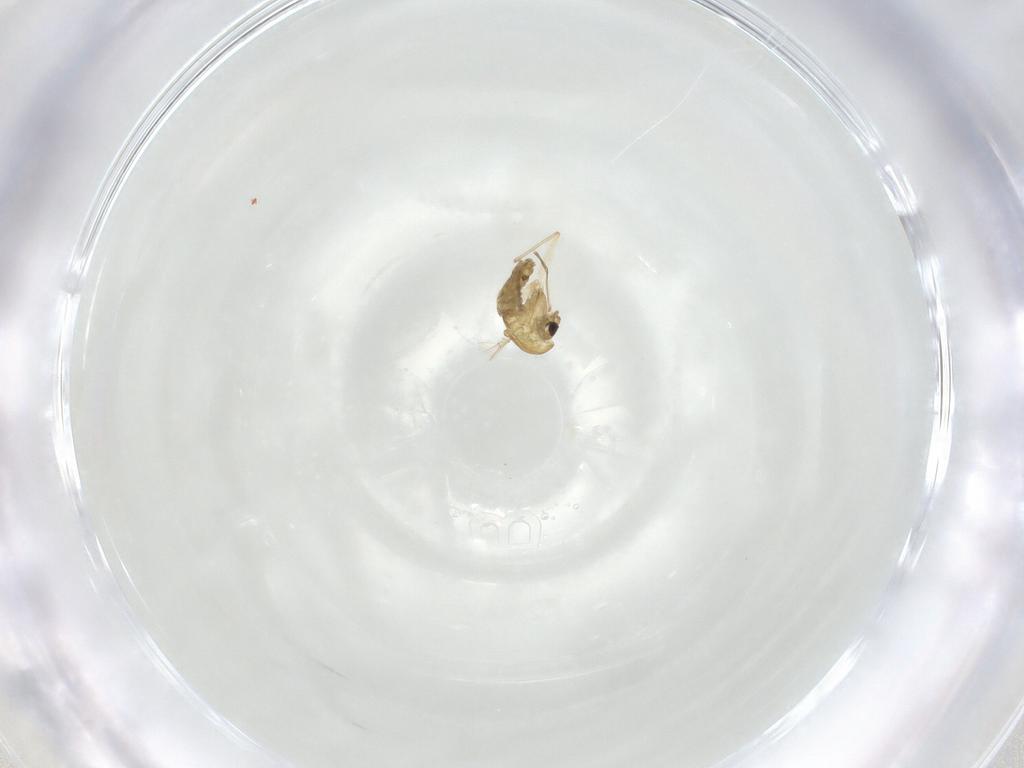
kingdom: Animalia
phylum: Arthropoda
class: Insecta
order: Diptera
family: Chironomidae
